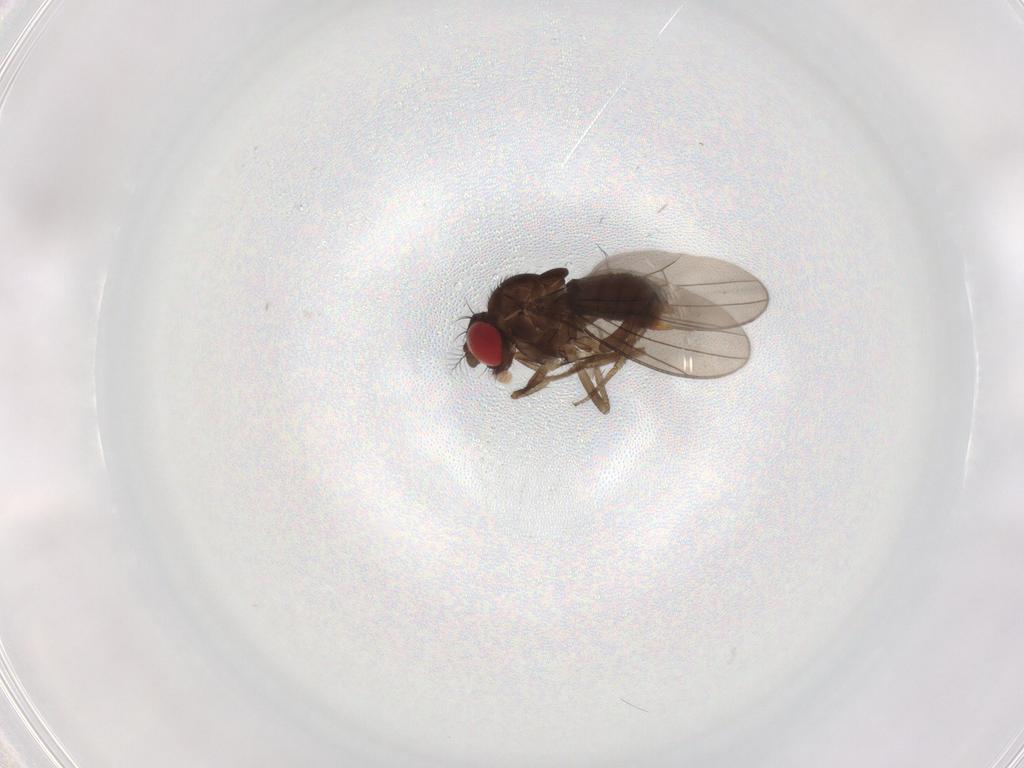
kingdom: Animalia
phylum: Arthropoda
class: Insecta
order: Diptera
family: Drosophilidae
